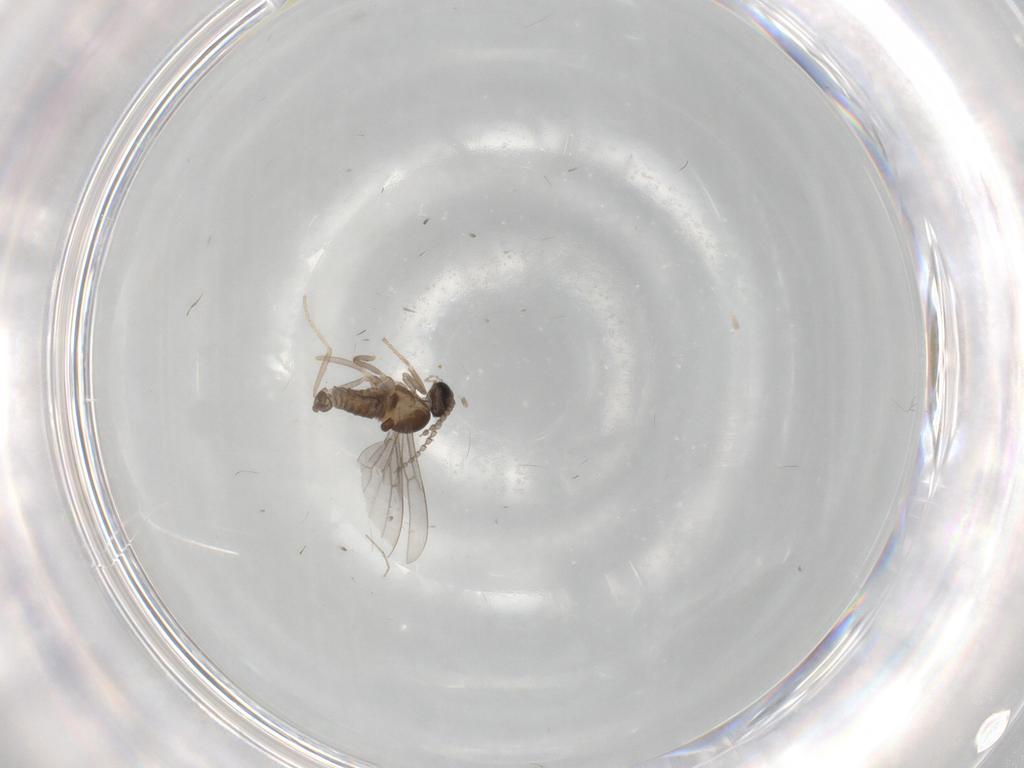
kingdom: Animalia
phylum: Arthropoda
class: Insecta
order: Diptera
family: Cecidomyiidae
